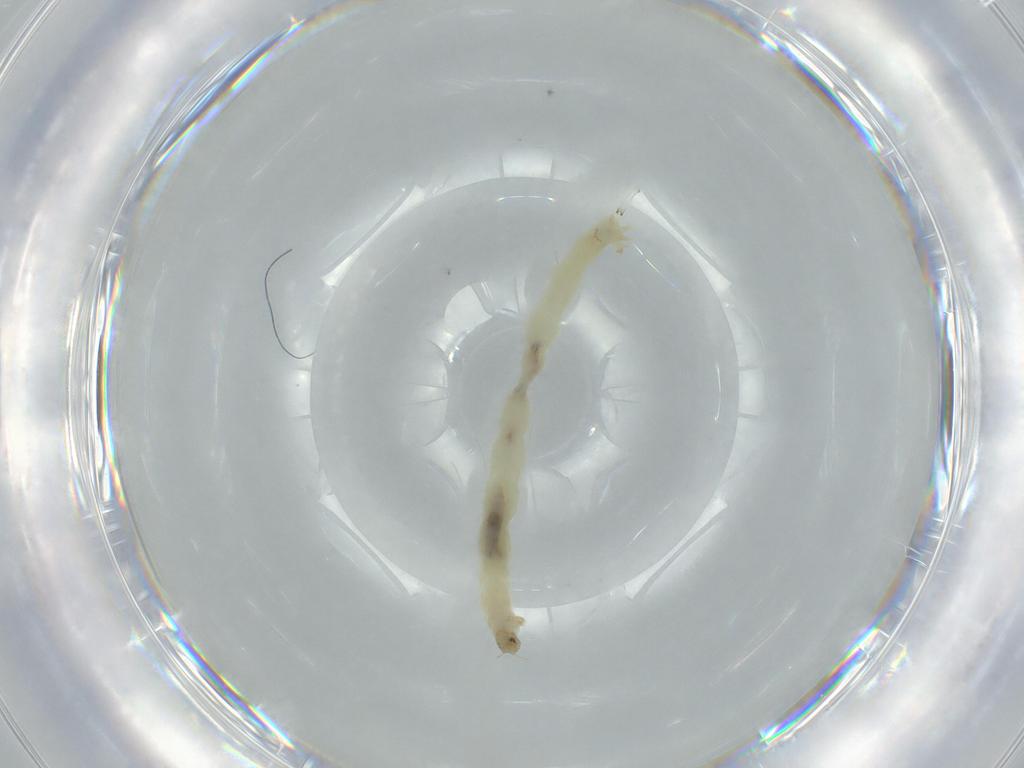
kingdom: Animalia
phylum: Arthropoda
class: Insecta
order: Diptera
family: Chironomidae
